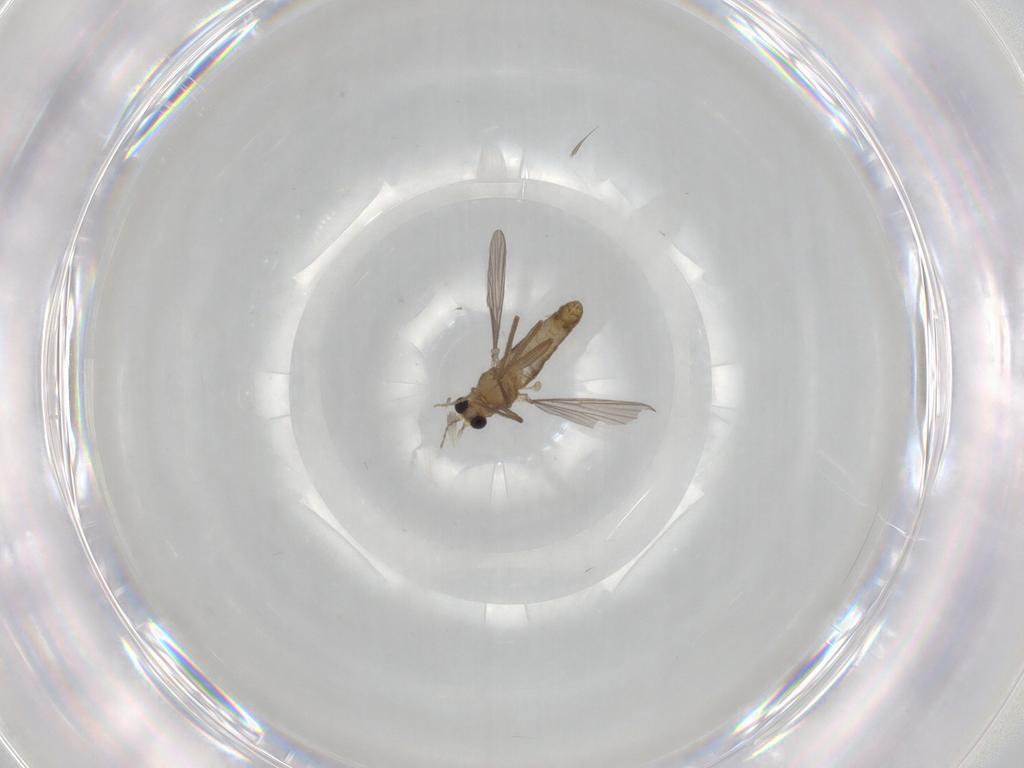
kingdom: Animalia
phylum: Arthropoda
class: Insecta
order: Diptera
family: Chironomidae
